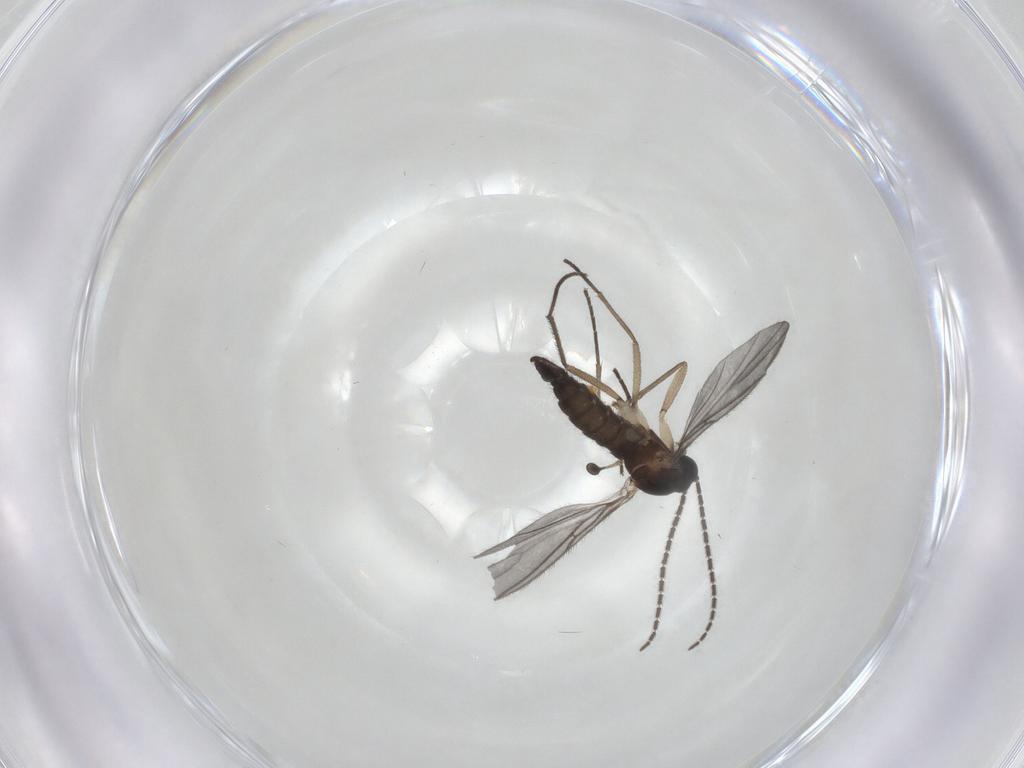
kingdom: Animalia
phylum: Arthropoda
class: Insecta
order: Diptera
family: Sciaridae
